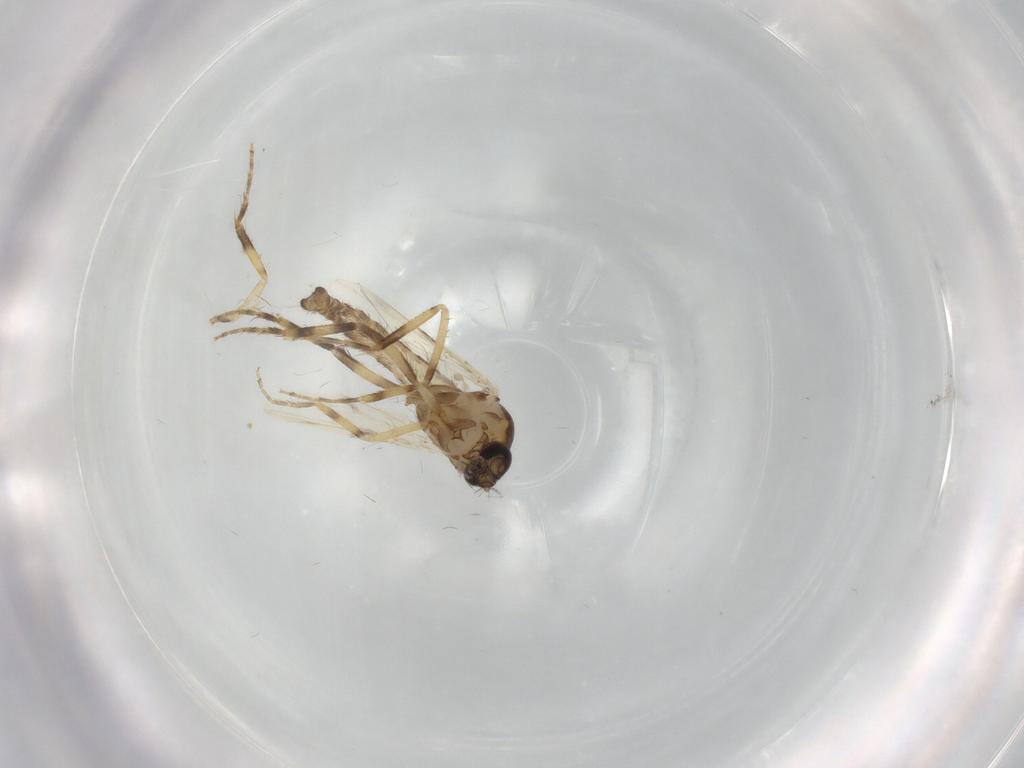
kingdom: Animalia
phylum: Arthropoda
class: Insecta
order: Diptera
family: Ceratopogonidae
